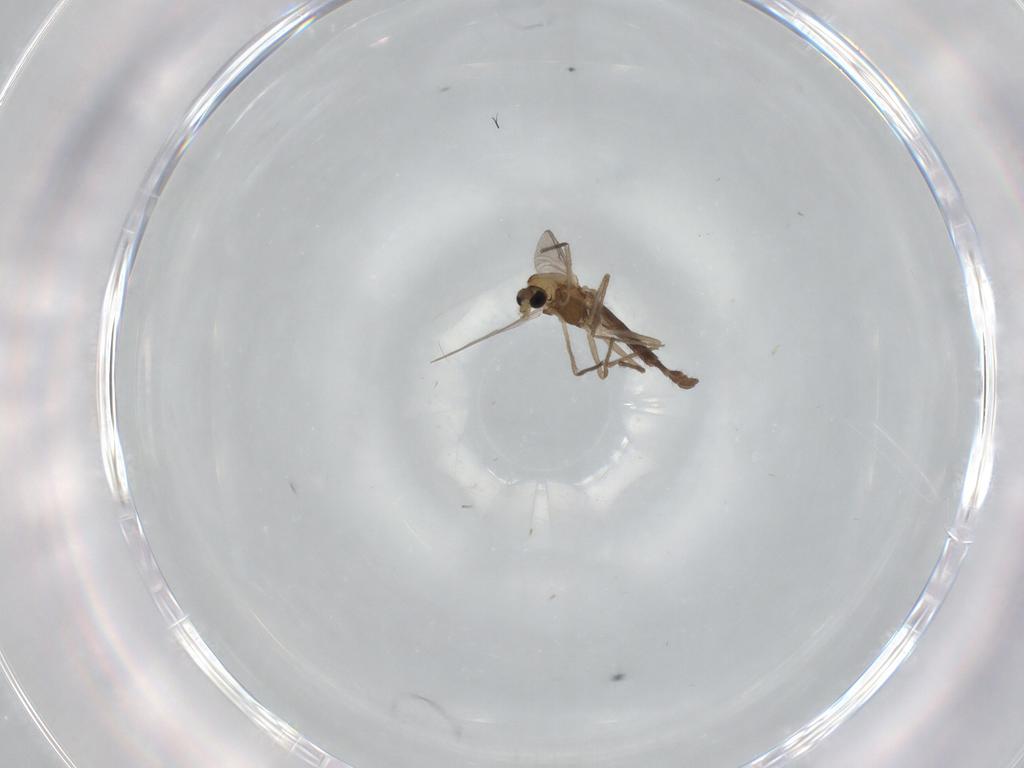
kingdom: Animalia
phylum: Arthropoda
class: Insecta
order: Diptera
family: Chironomidae
